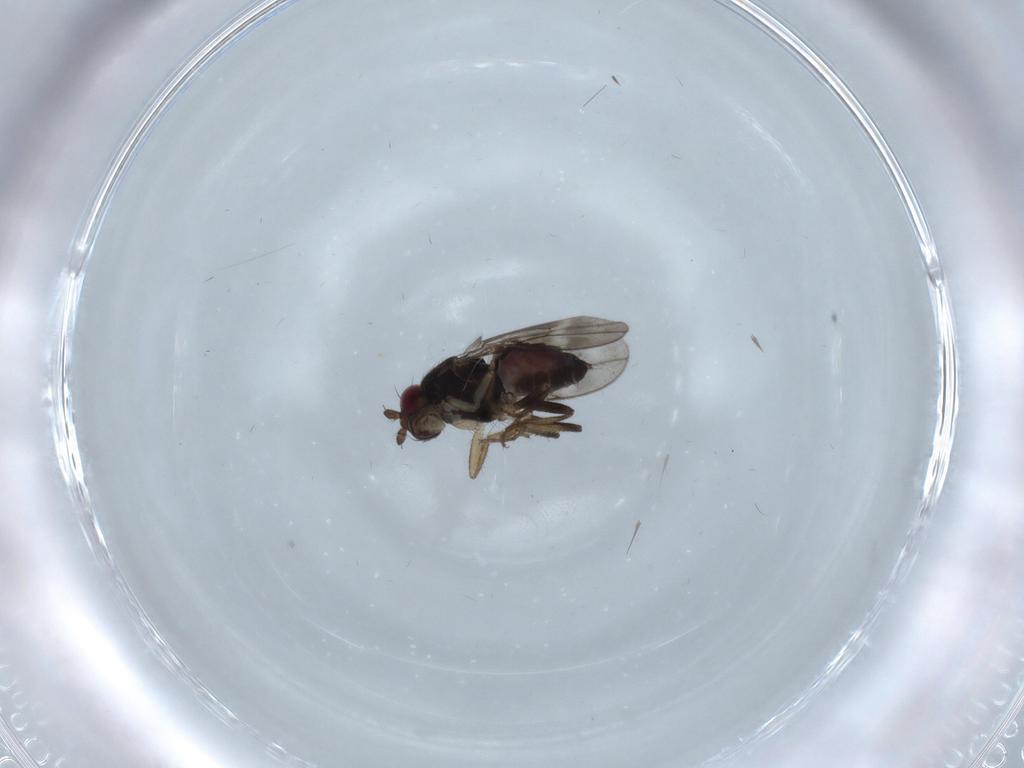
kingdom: Animalia
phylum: Arthropoda
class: Insecta
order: Diptera
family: Sphaeroceridae
